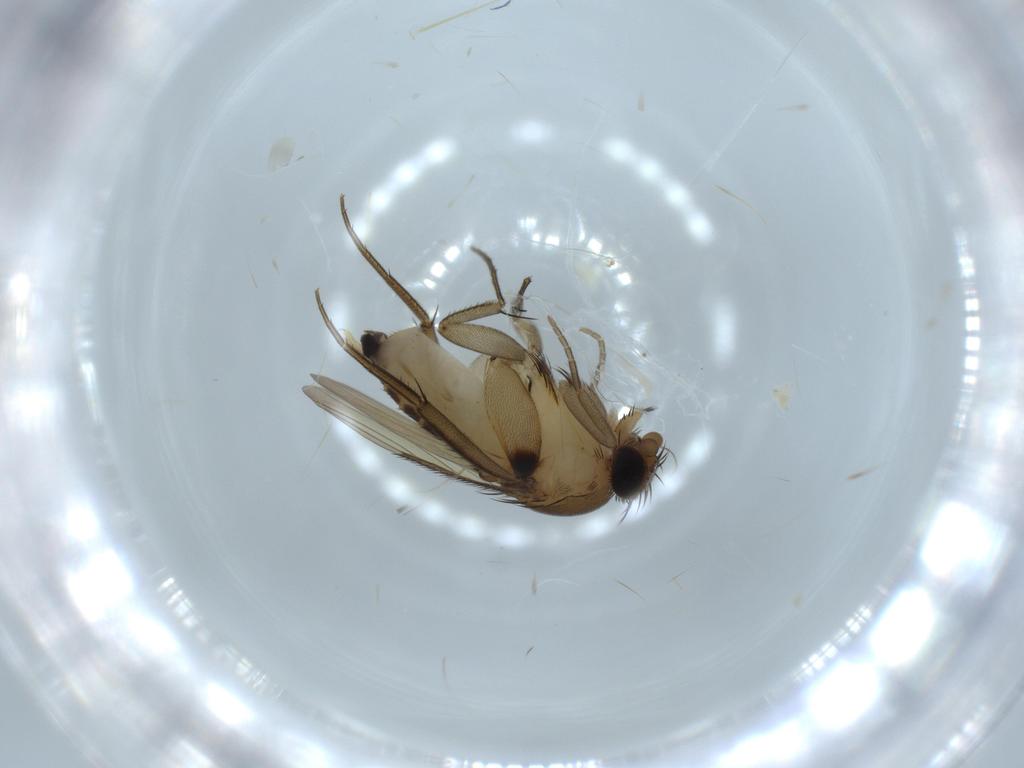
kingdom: Animalia
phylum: Arthropoda
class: Insecta
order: Diptera
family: Phoridae
